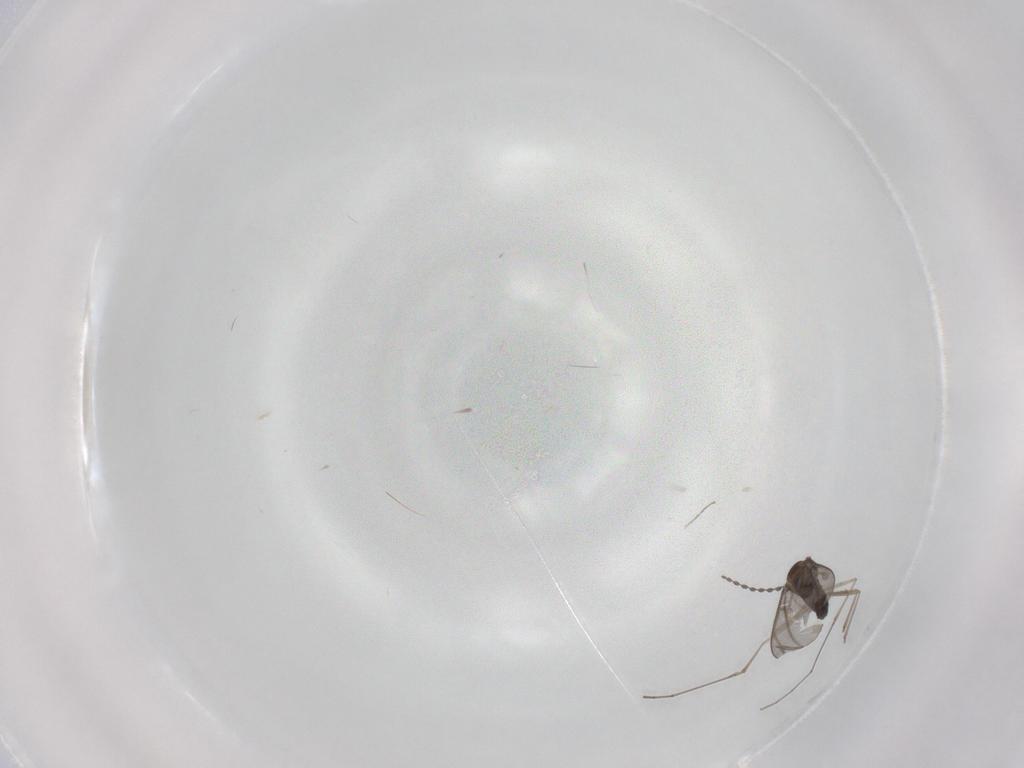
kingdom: Animalia
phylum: Arthropoda
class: Insecta
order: Diptera
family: Cecidomyiidae
